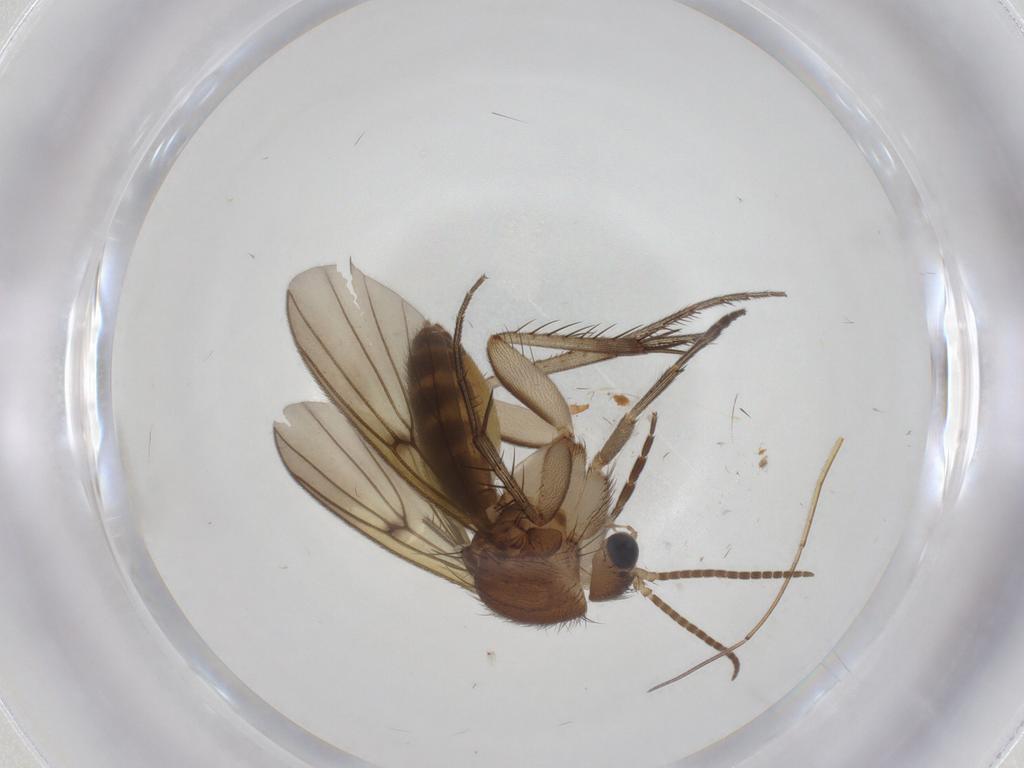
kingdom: Animalia
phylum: Arthropoda
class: Insecta
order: Diptera
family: Mycetophilidae
